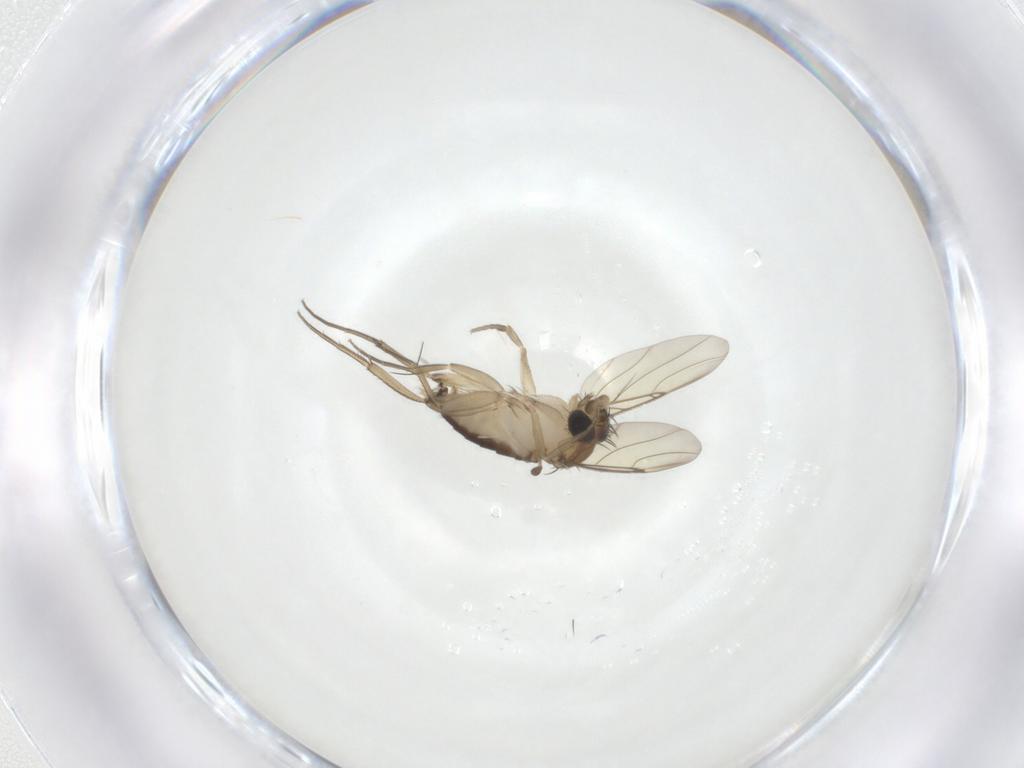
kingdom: Animalia
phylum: Arthropoda
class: Insecta
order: Diptera
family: Phoridae
